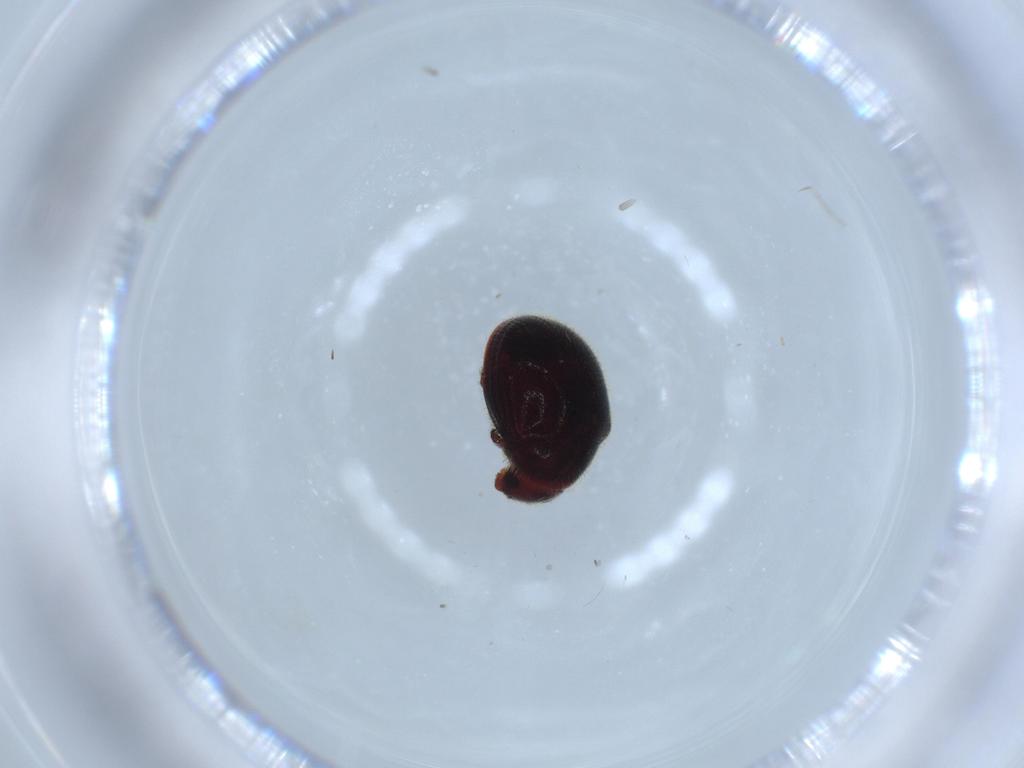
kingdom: Animalia
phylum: Arthropoda
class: Insecta
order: Coleoptera
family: Ptinidae
